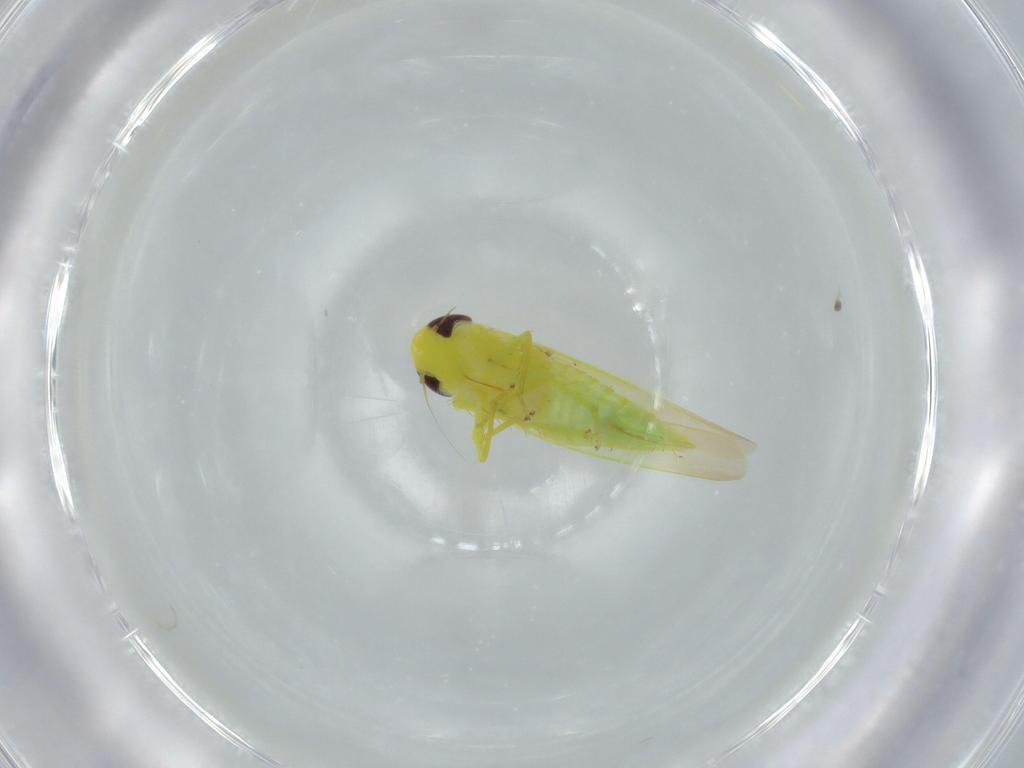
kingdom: Animalia
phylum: Arthropoda
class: Insecta
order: Hemiptera
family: Cicadellidae
